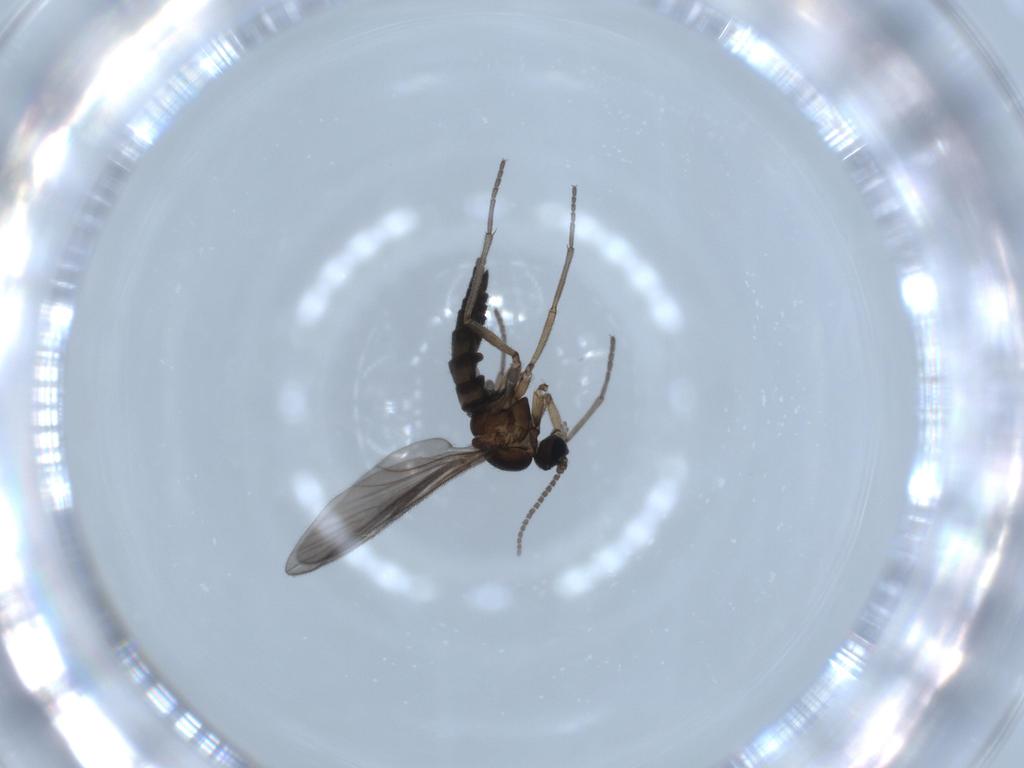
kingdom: Animalia
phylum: Arthropoda
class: Insecta
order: Diptera
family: Sciaridae
